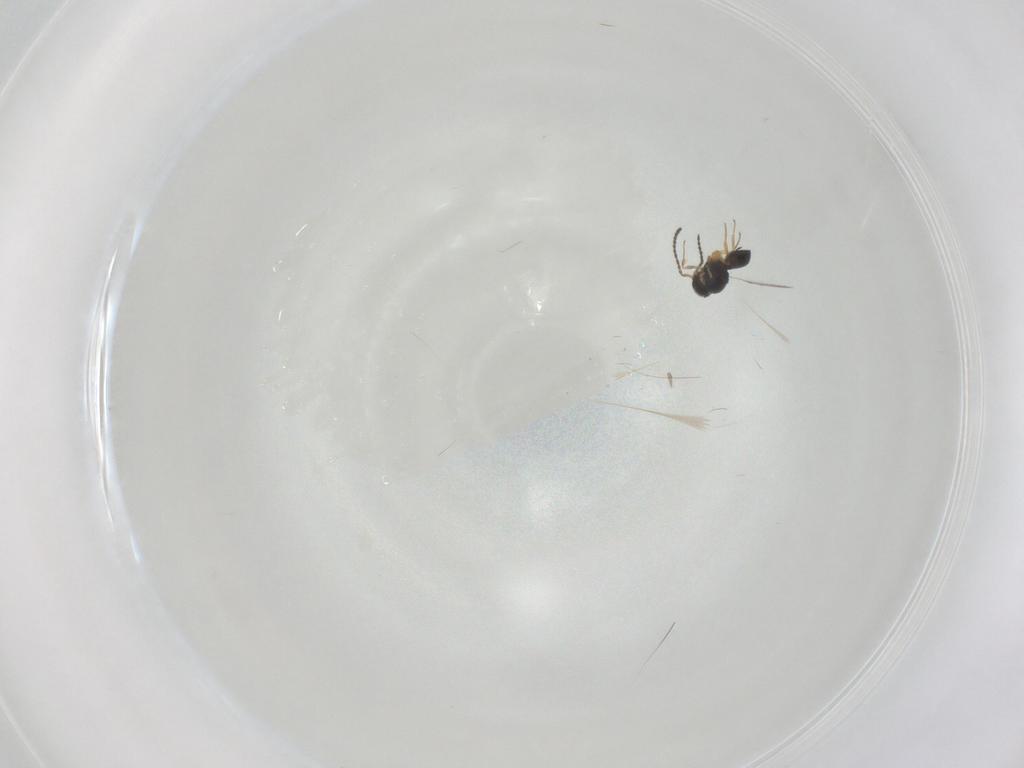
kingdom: Animalia
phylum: Arthropoda
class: Insecta
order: Hymenoptera
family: Scelionidae
